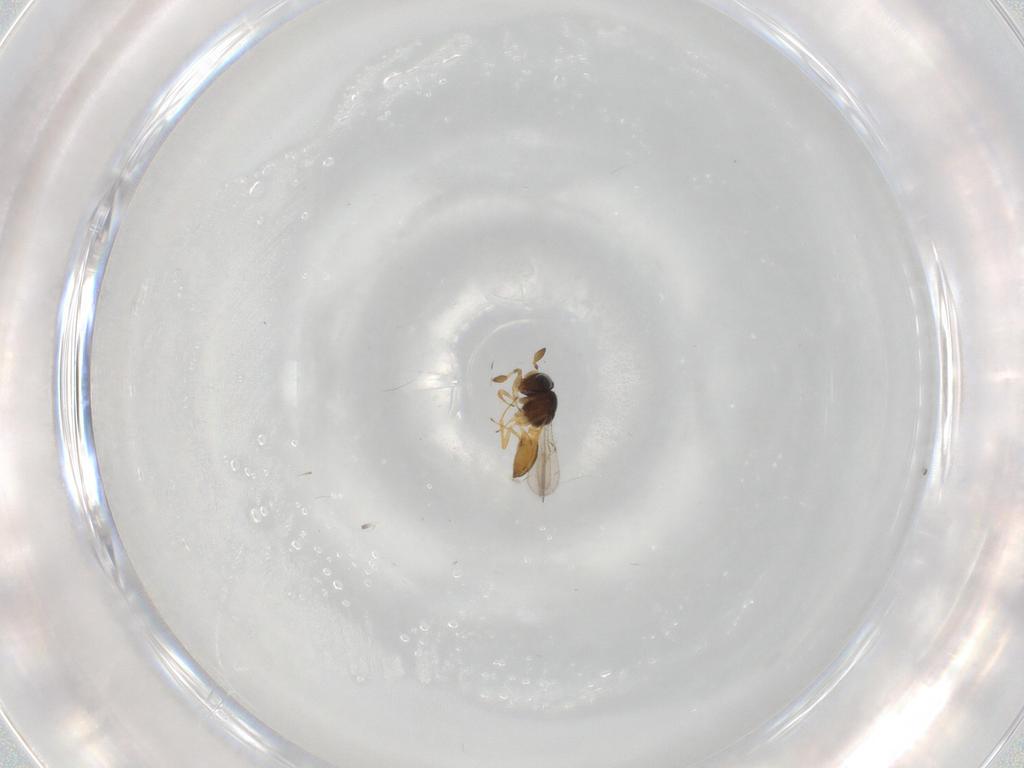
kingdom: Animalia
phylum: Arthropoda
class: Insecta
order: Hymenoptera
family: Scelionidae
